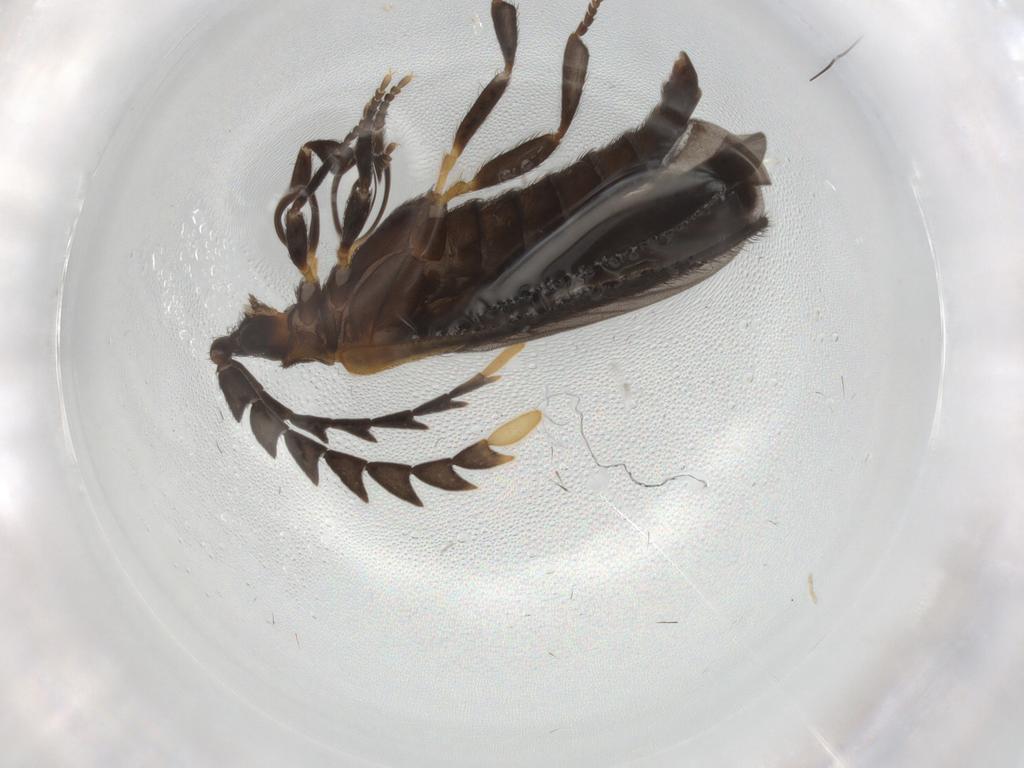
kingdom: Animalia
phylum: Arthropoda
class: Insecta
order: Coleoptera
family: Lycidae
